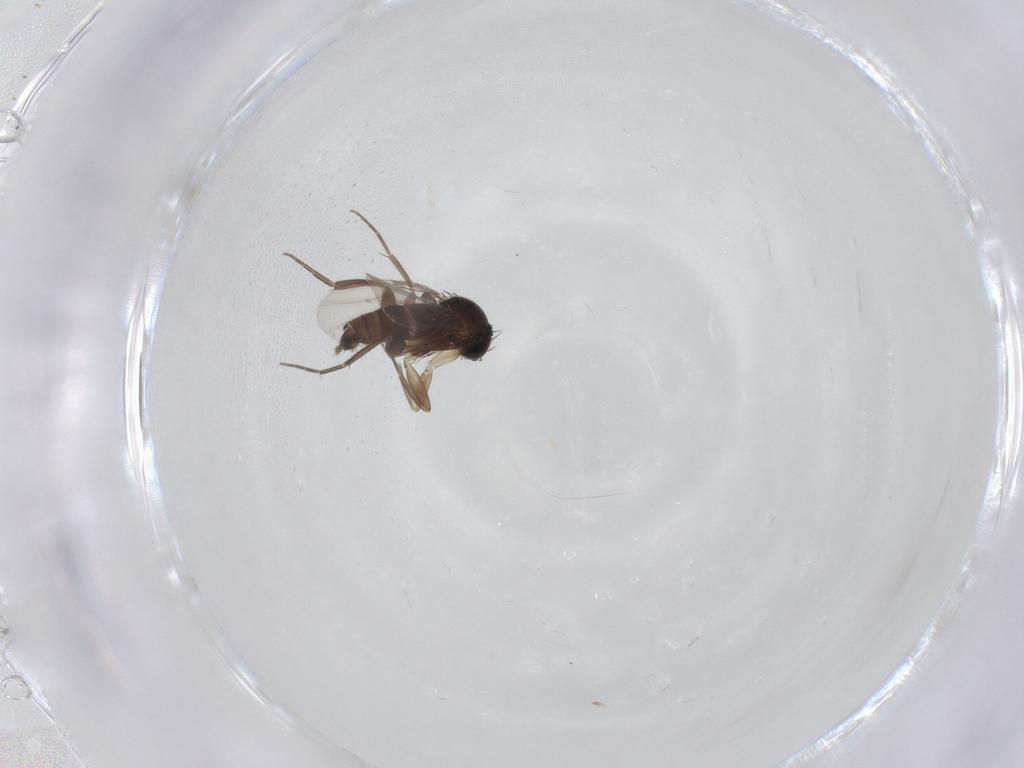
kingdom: Animalia
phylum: Arthropoda
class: Insecta
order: Diptera
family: Phoridae
